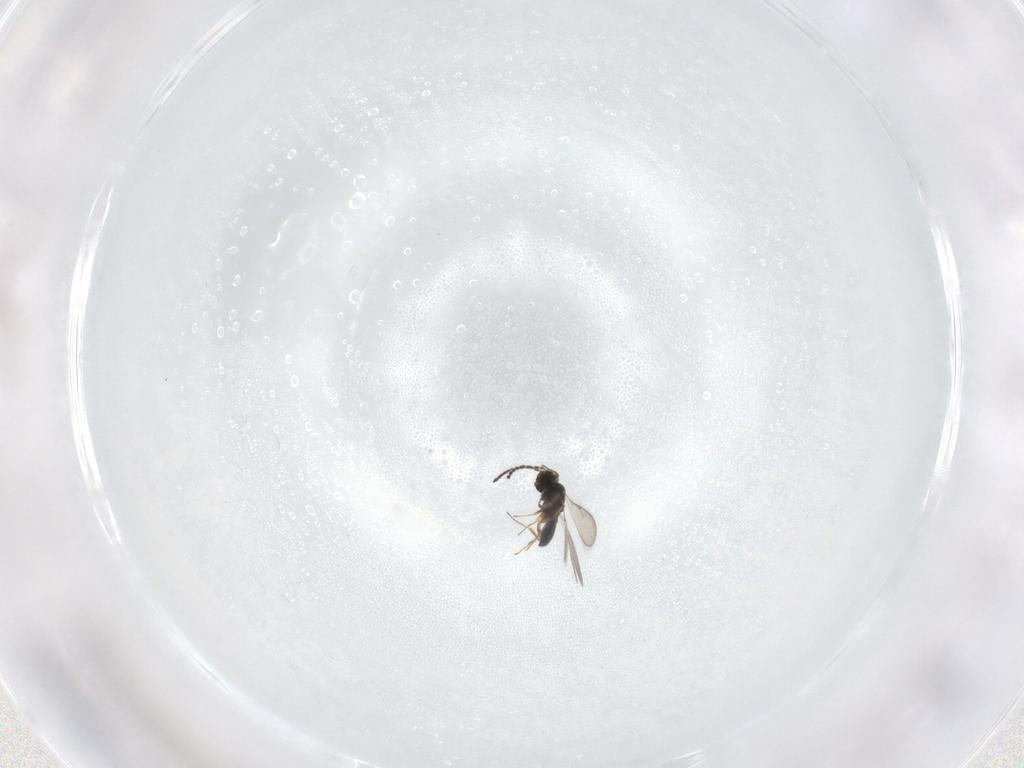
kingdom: Animalia
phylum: Arthropoda
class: Insecta
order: Hymenoptera
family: Scelionidae
